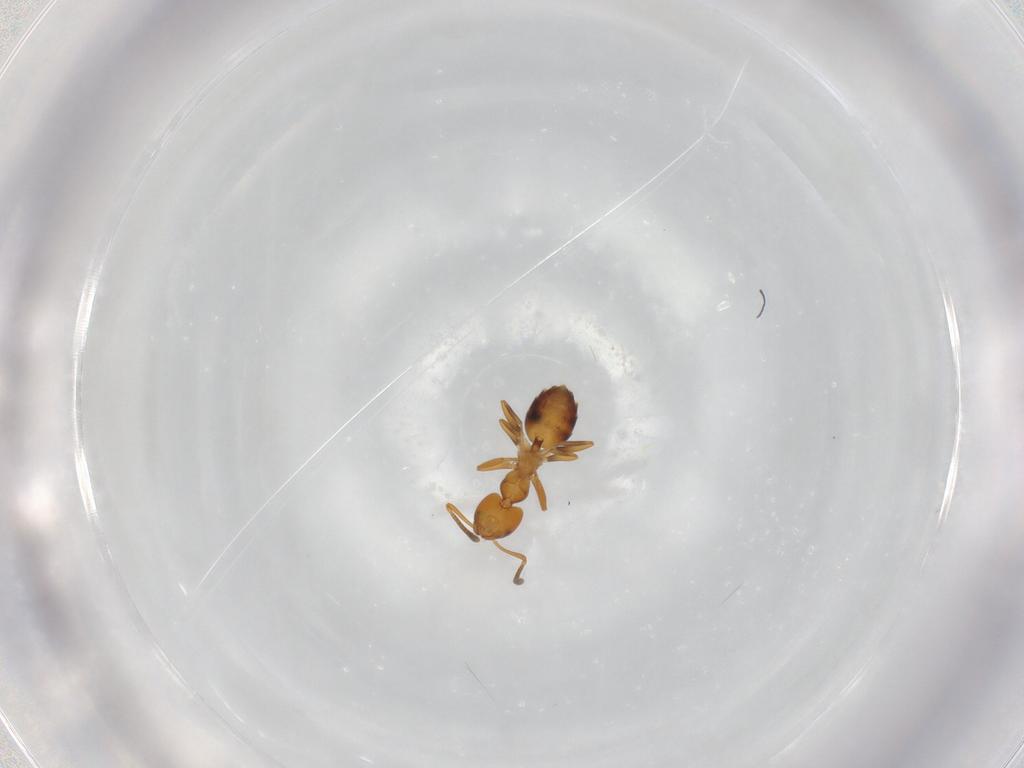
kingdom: Animalia
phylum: Arthropoda
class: Insecta
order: Hymenoptera
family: Formicidae
